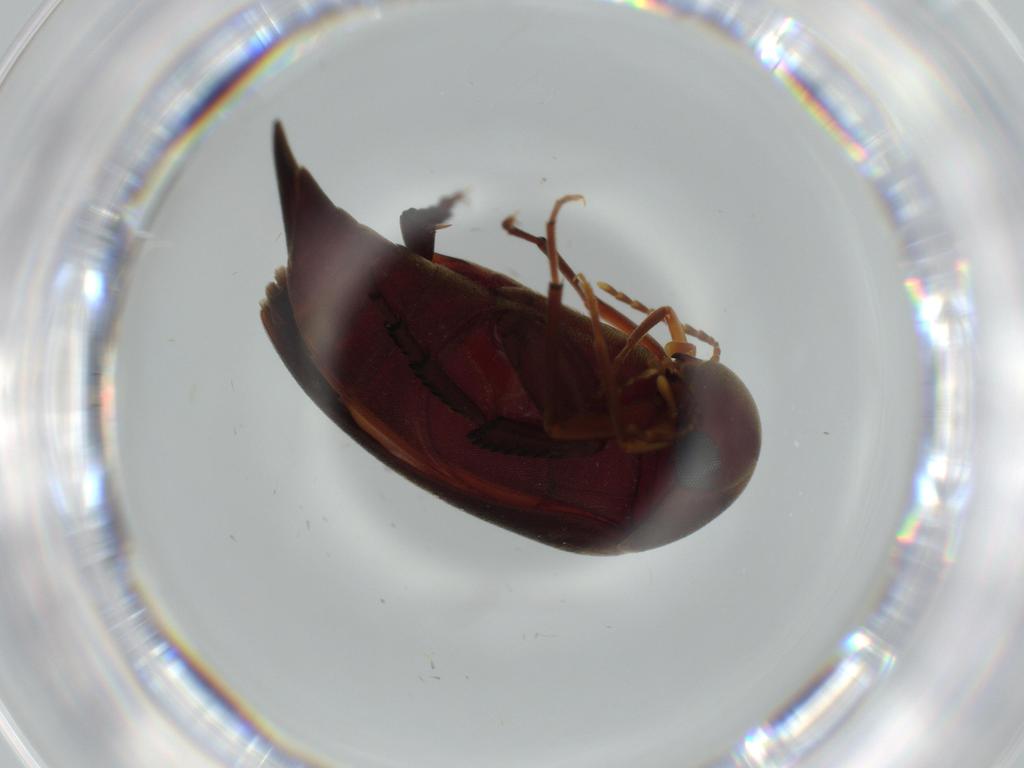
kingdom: Animalia
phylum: Arthropoda
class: Insecta
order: Coleoptera
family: Mordellidae
